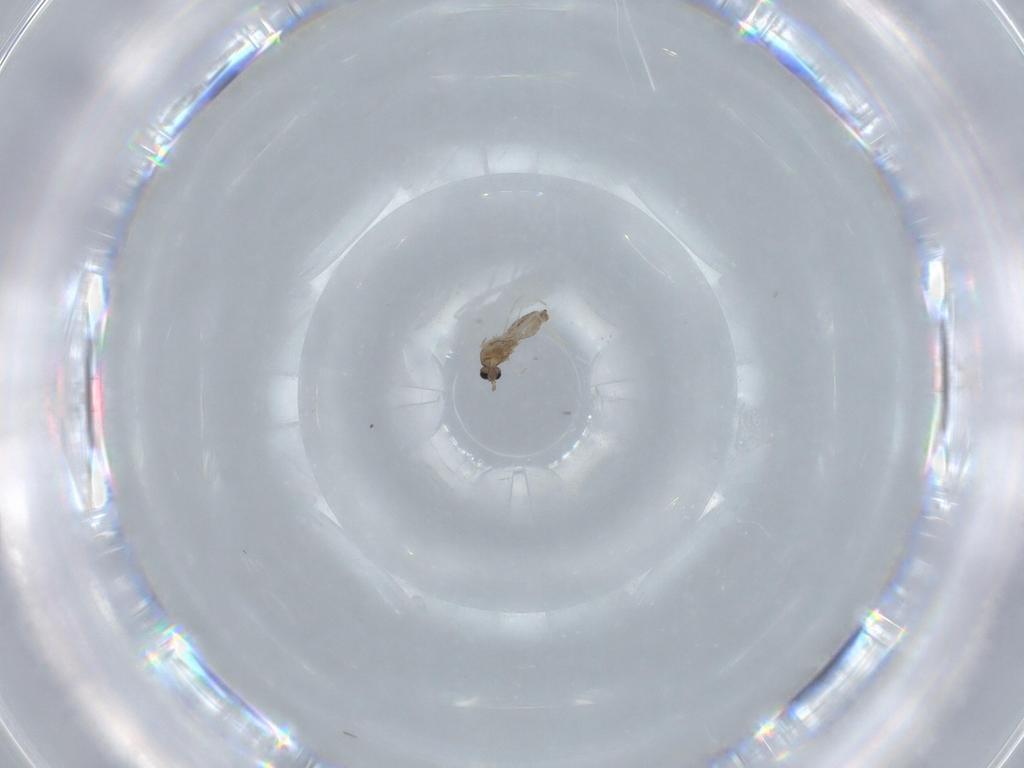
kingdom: Animalia
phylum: Arthropoda
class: Insecta
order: Diptera
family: Cecidomyiidae
